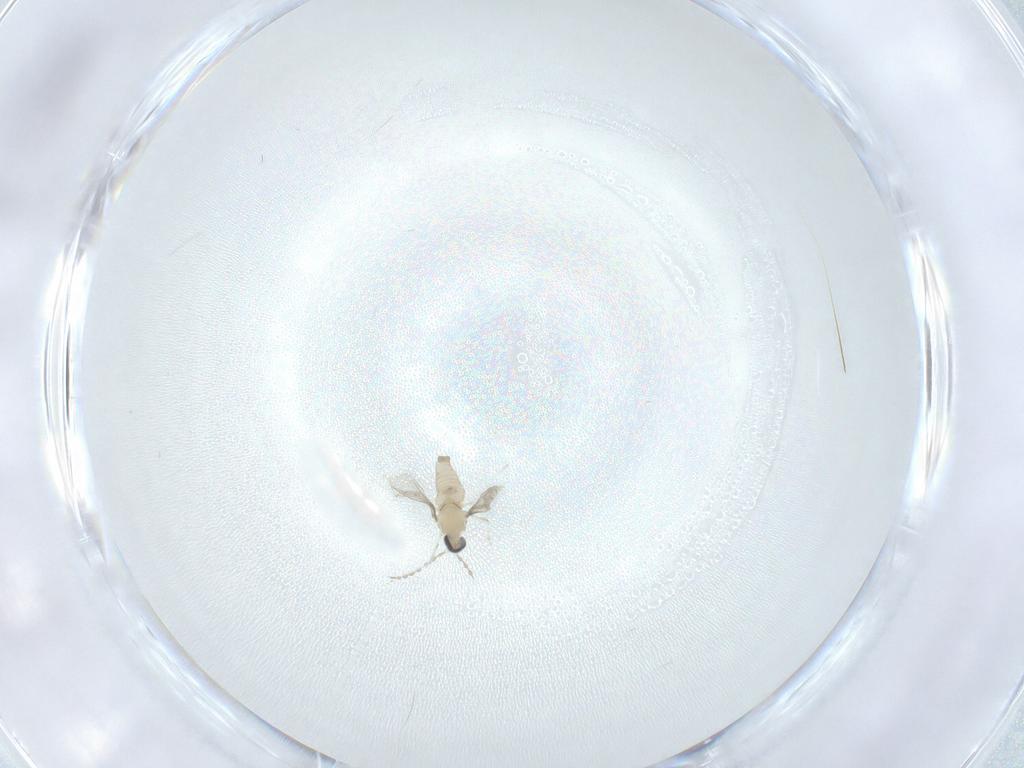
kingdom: Animalia
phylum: Arthropoda
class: Insecta
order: Diptera
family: Cecidomyiidae
